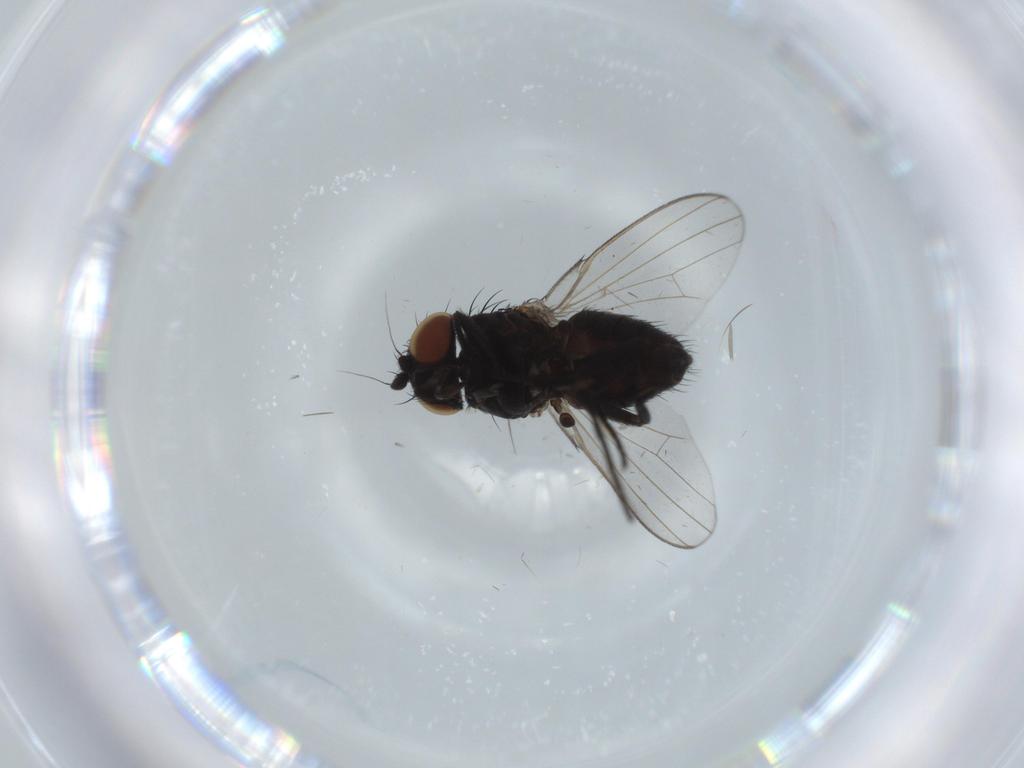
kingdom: Animalia
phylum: Arthropoda
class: Insecta
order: Diptera
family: Milichiidae
